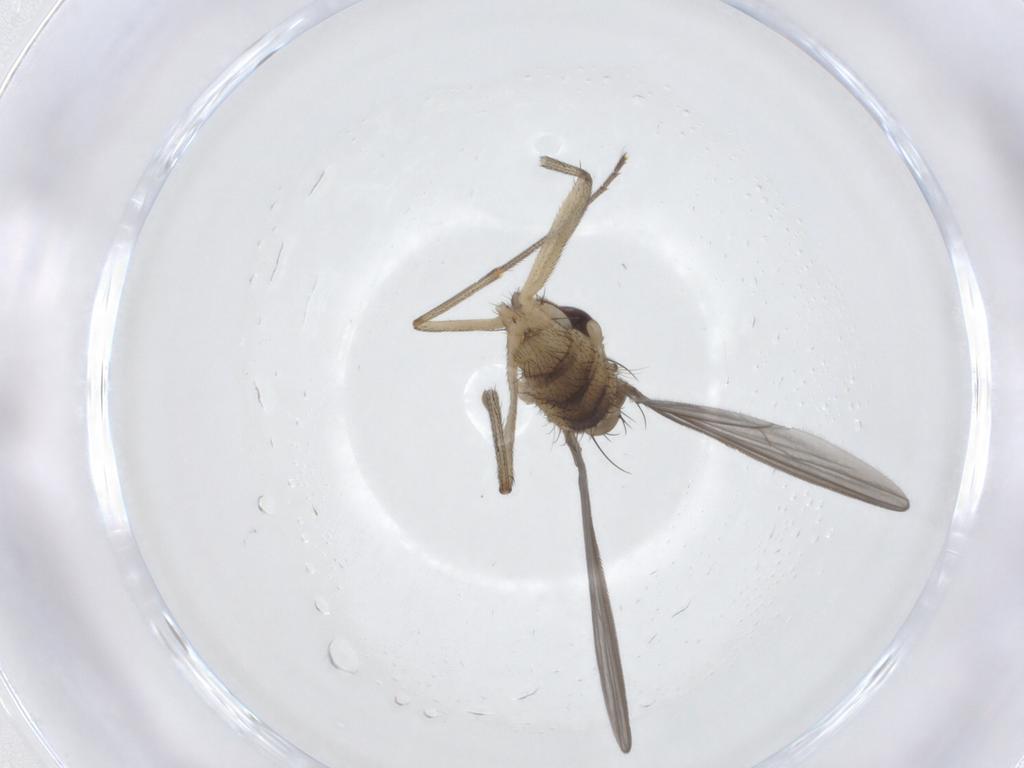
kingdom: Animalia
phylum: Arthropoda
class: Insecta
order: Diptera
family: Dolichopodidae
